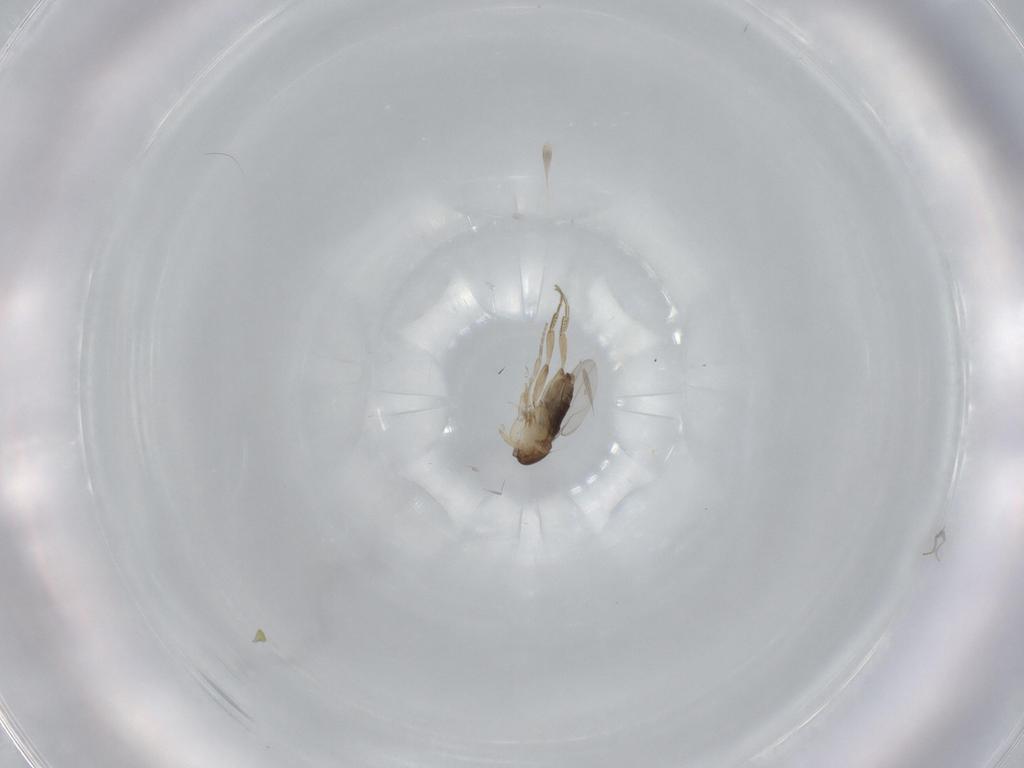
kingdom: Animalia
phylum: Arthropoda
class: Insecta
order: Diptera
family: Phoridae
